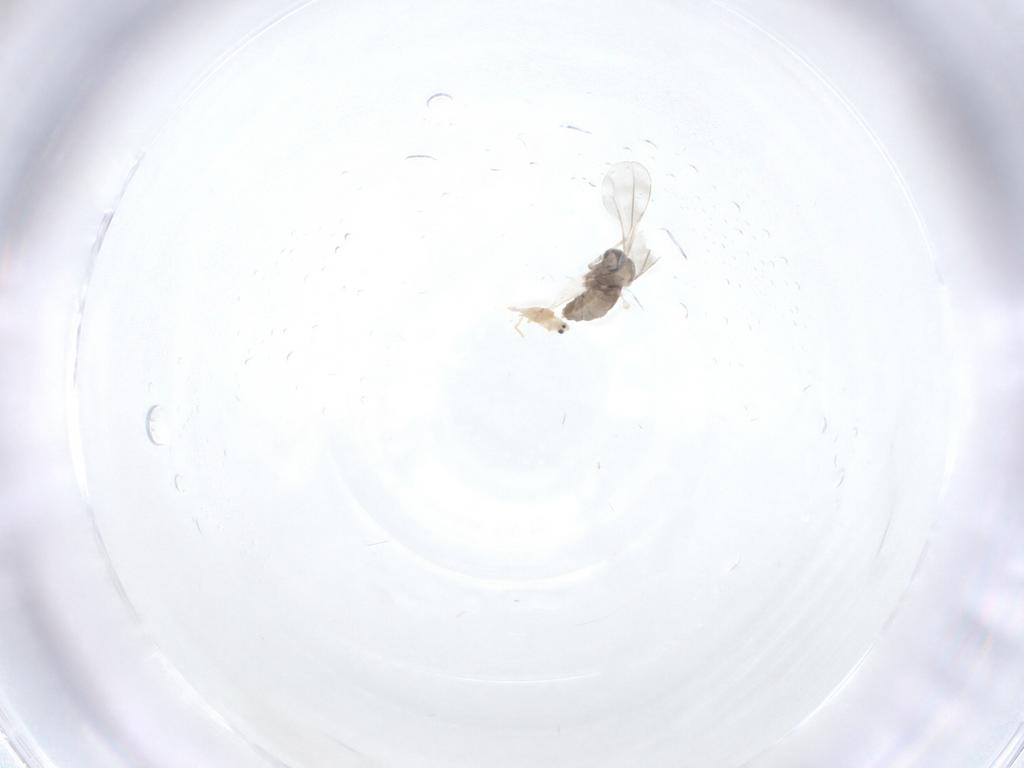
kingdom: Animalia
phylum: Arthropoda
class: Insecta
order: Diptera
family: Cecidomyiidae
